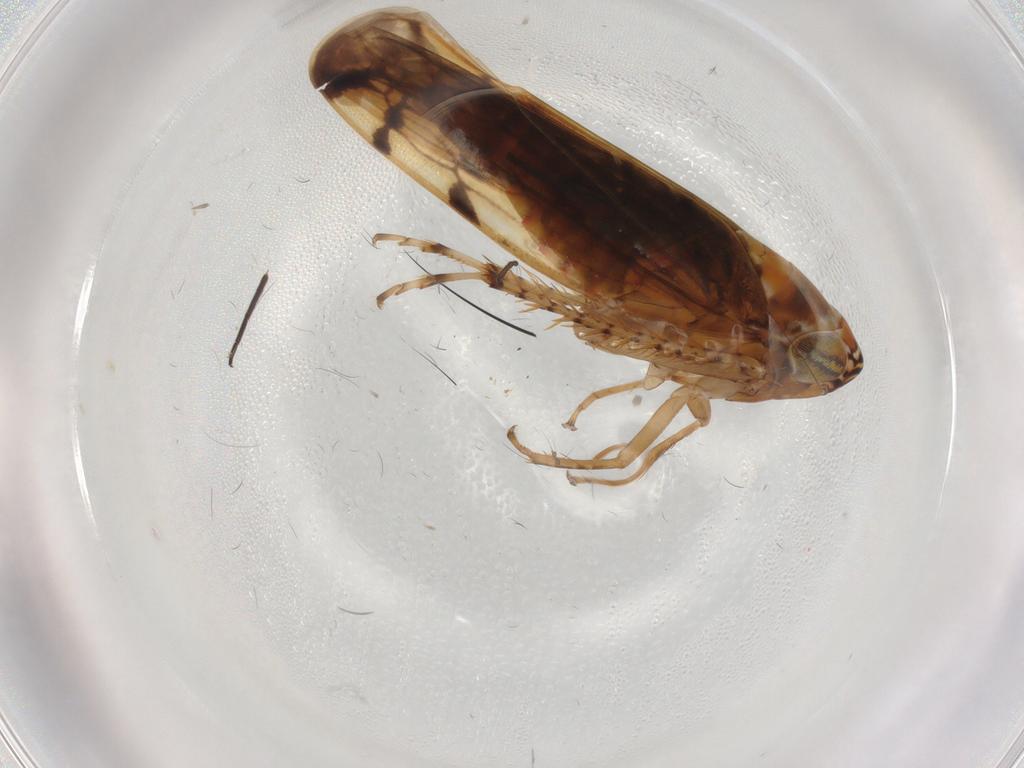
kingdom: Animalia
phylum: Arthropoda
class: Insecta
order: Hemiptera
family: Cicadellidae
